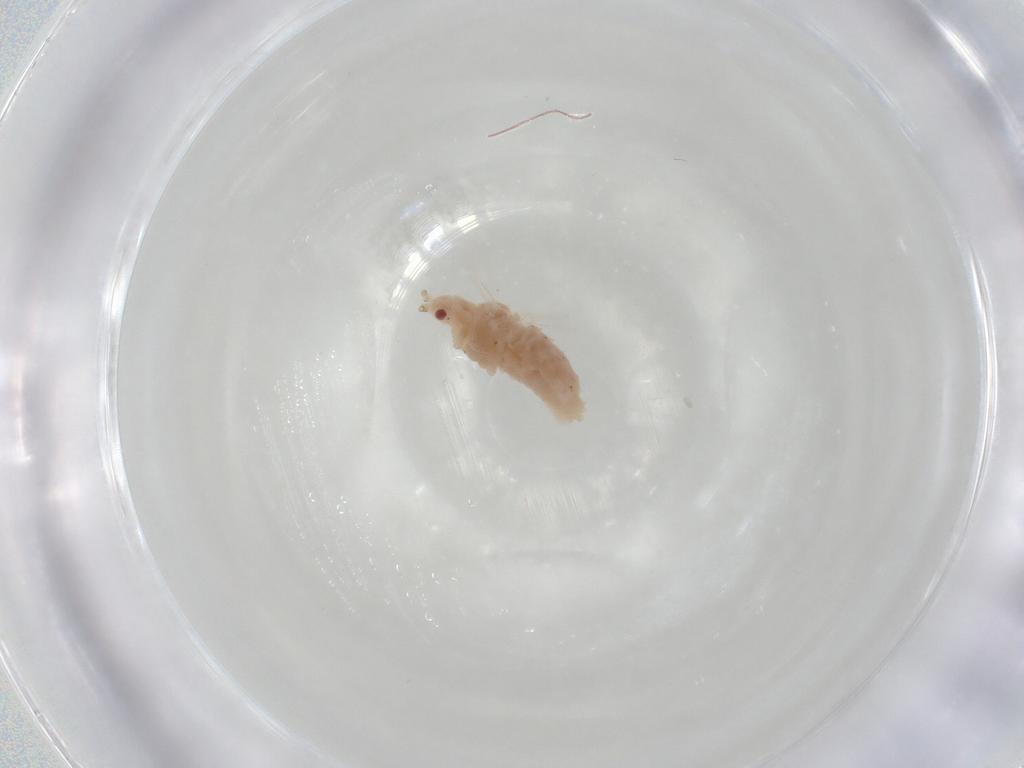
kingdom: Animalia
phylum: Arthropoda
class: Insecta
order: Hemiptera
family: Aphididae
